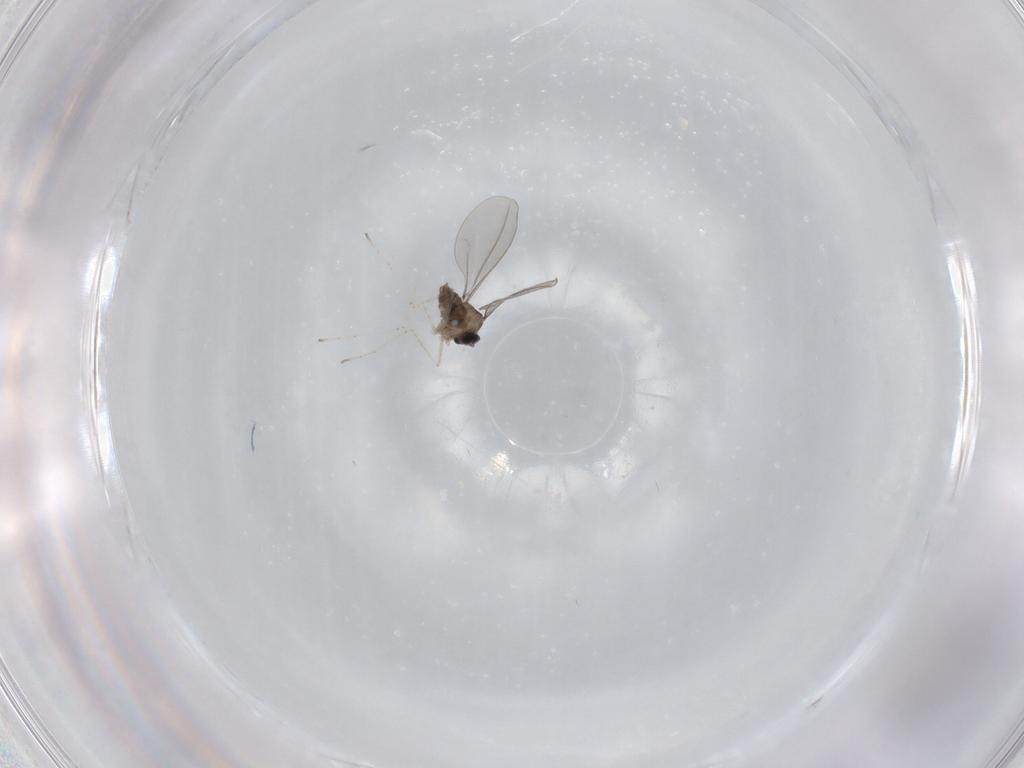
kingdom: Animalia
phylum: Arthropoda
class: Insecta
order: Diptera
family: Cecidomyiidae
